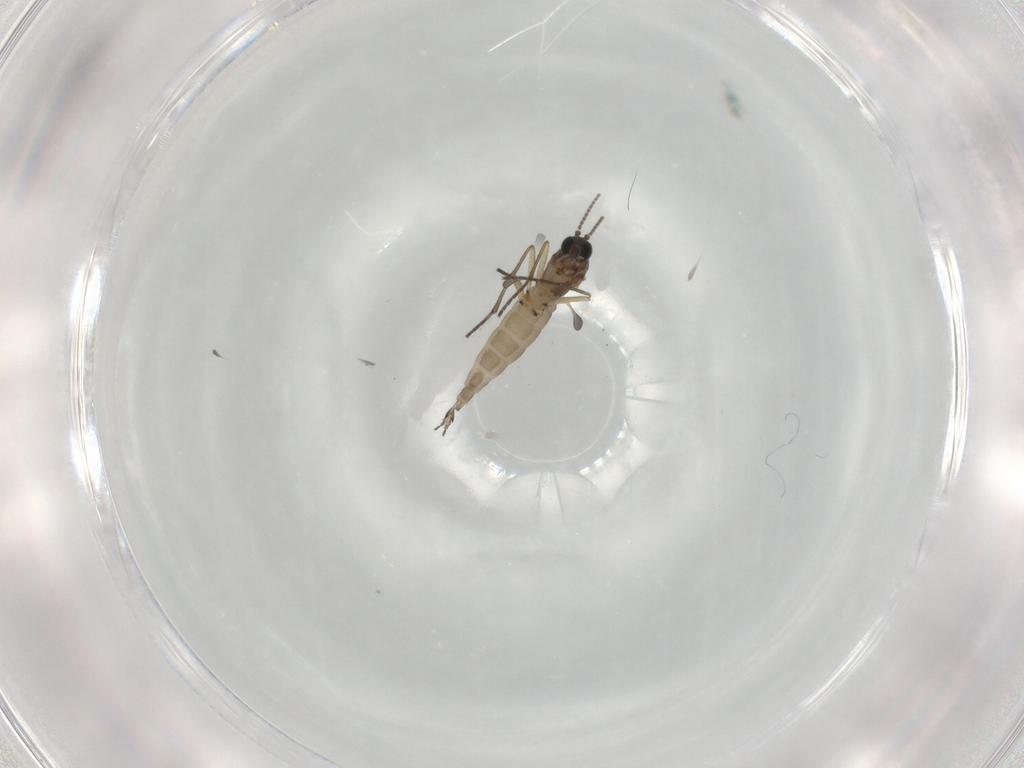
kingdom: Animalia
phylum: Arthropoda
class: Insecta
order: Diptera
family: Sciaridae
